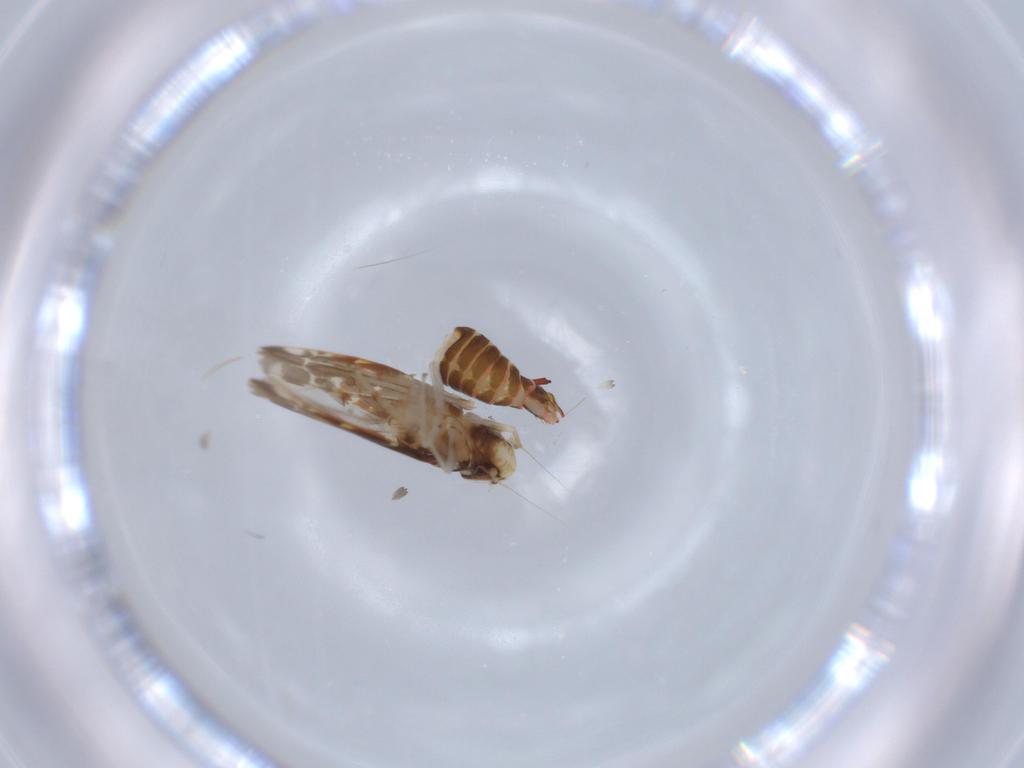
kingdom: Animalia
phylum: Arthropoda
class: Insecta
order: Hemiptera
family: Cicadellidae
